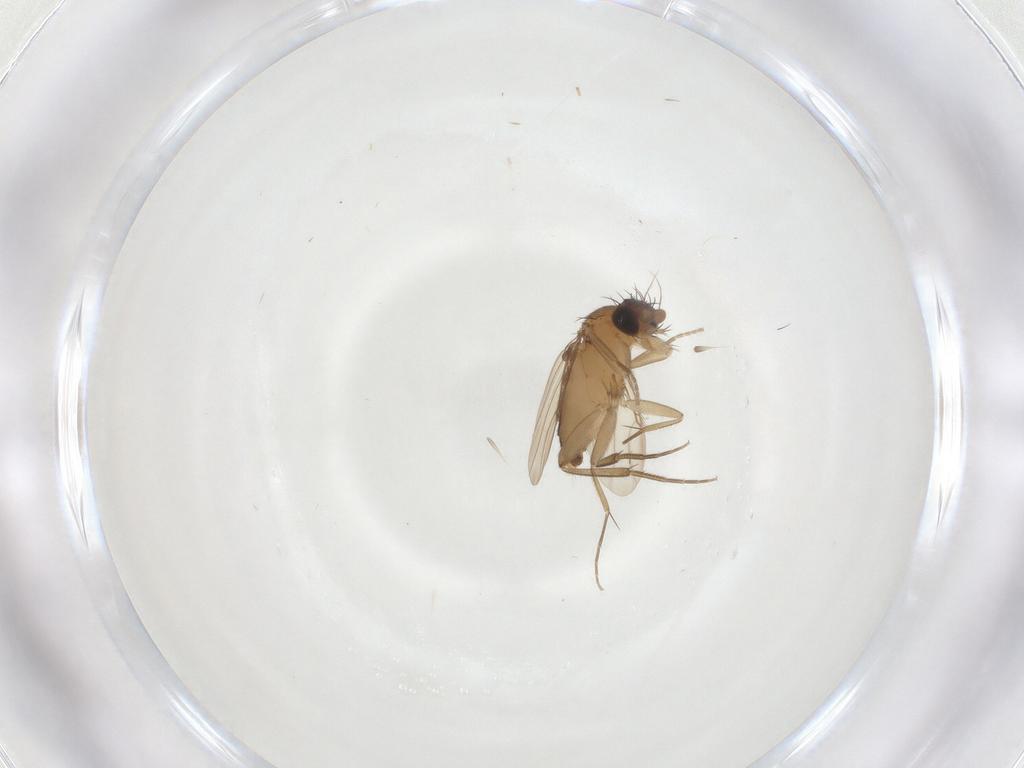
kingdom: Animalia
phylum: Arthropoda
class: Insecta
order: Diptera
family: Phoridae
